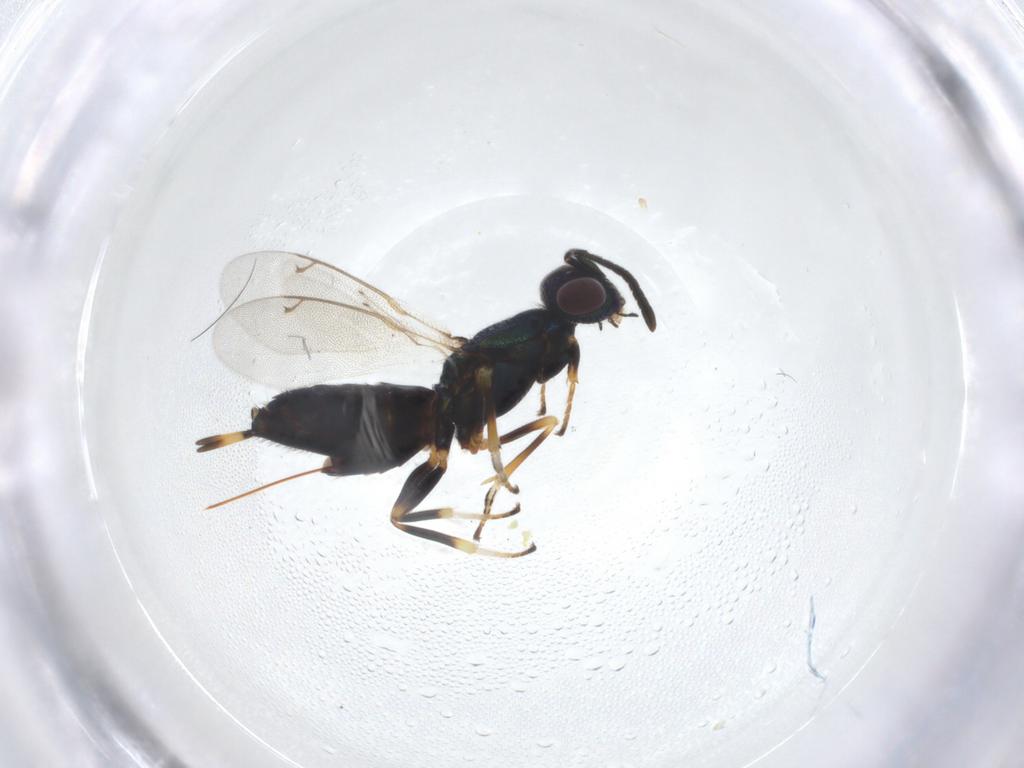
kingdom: Animalia
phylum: Arthropoda
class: Insecta
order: Hymenoptera
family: Eupelmidae
